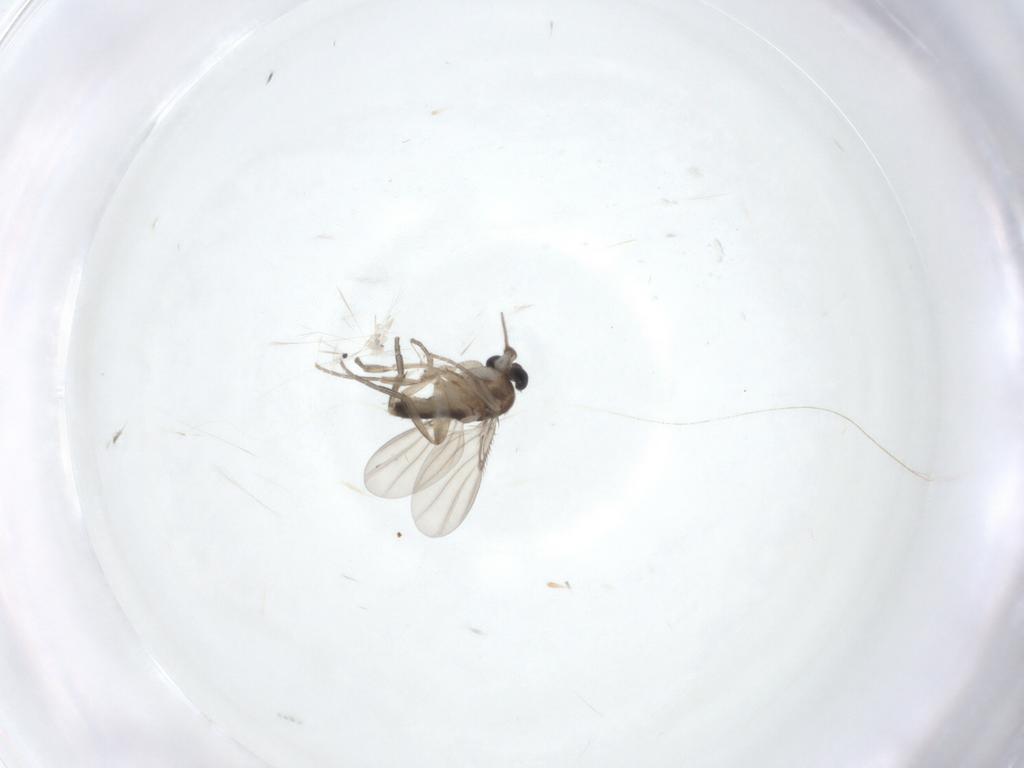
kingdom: Animalia
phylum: Arthropoda
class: Insecta
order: Diptera
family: Phoridae
